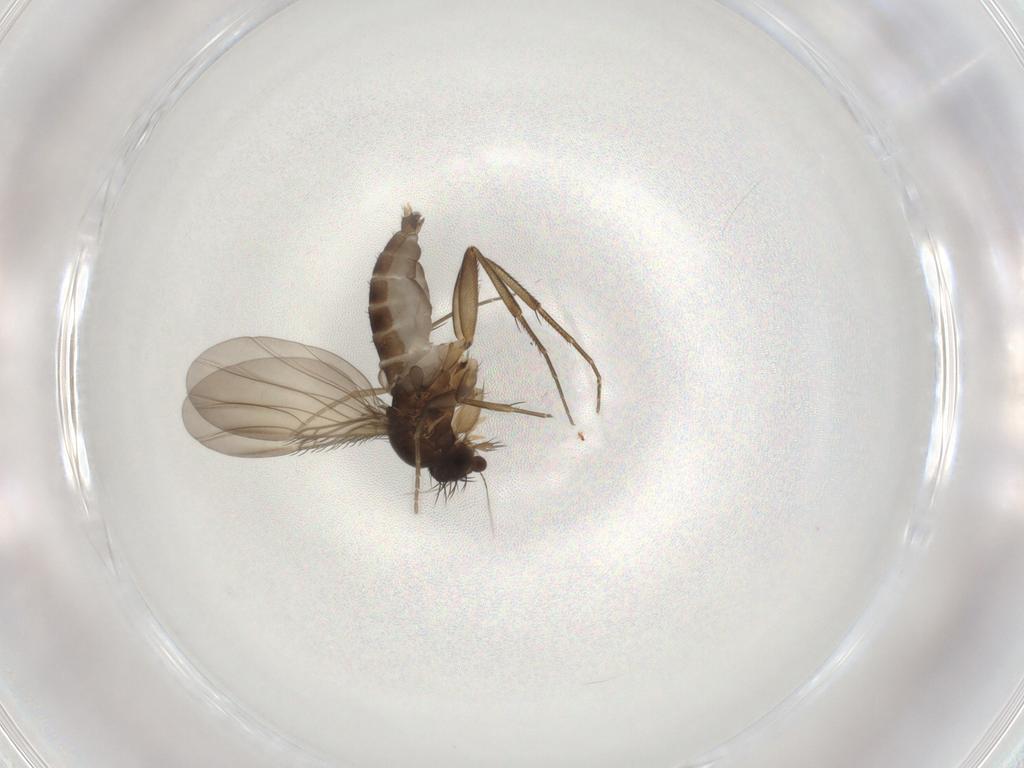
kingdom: Animalia
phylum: Arthropoda
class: Insecta
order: Diptera
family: Phoridae
